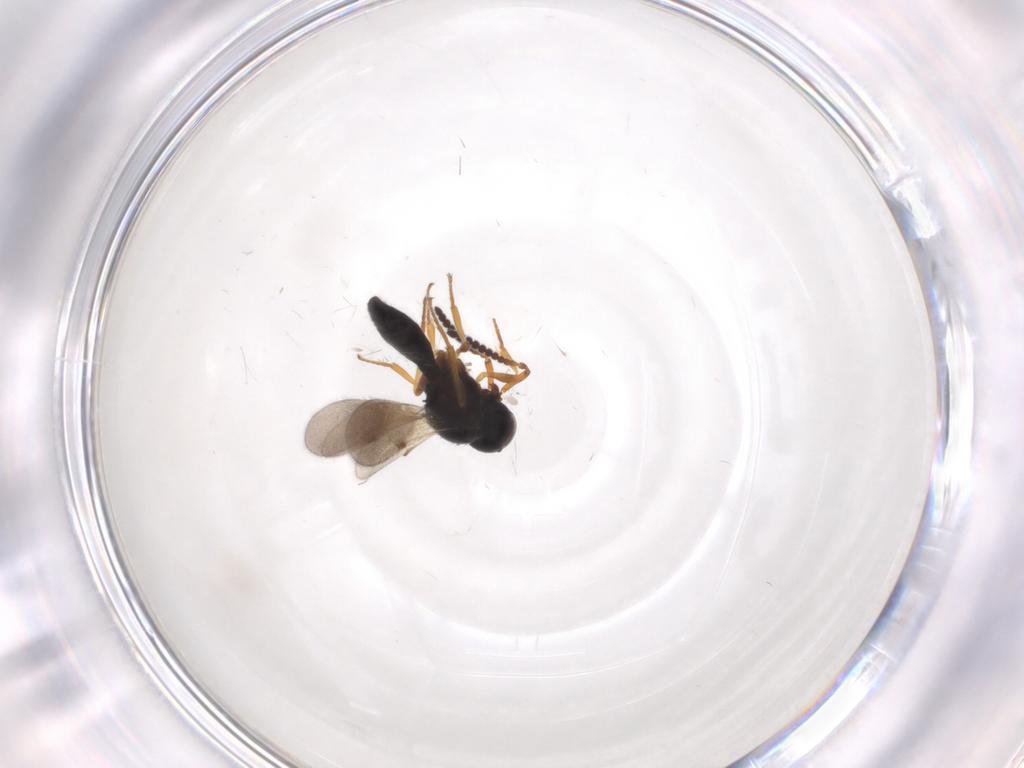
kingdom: Animalia
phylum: Arthropoda
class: Insecta
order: Hymenoptera
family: Scelionidae
